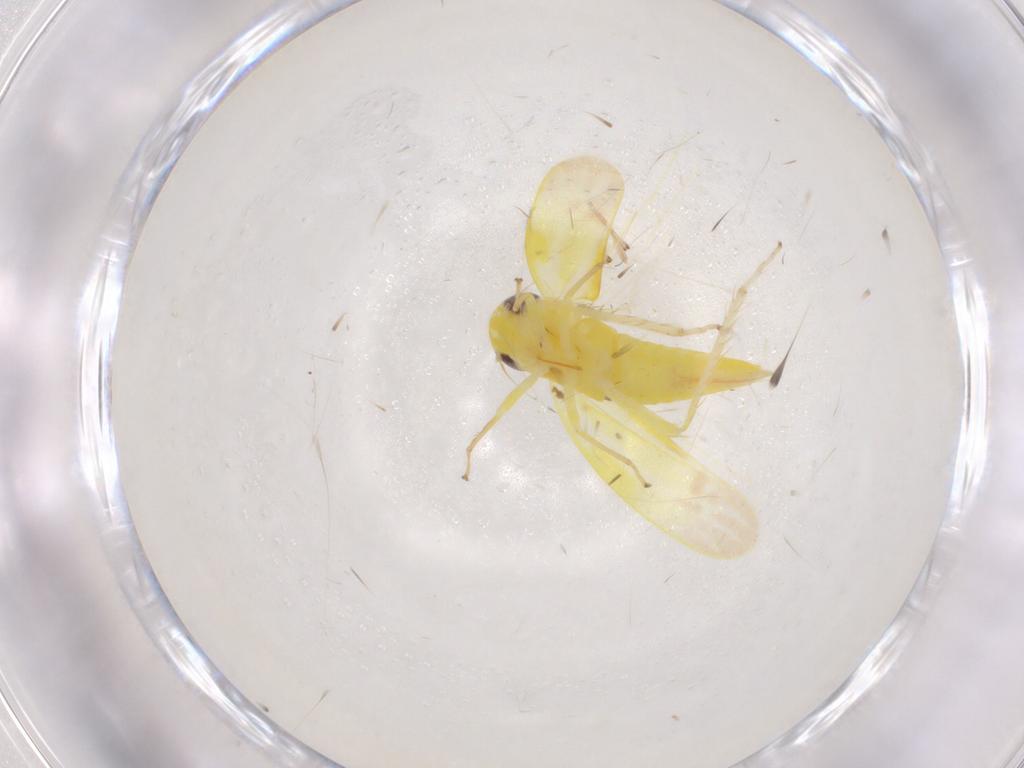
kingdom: Animalia
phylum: Arthropoda
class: Insecta
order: Hemiptera
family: Cicadellidae
